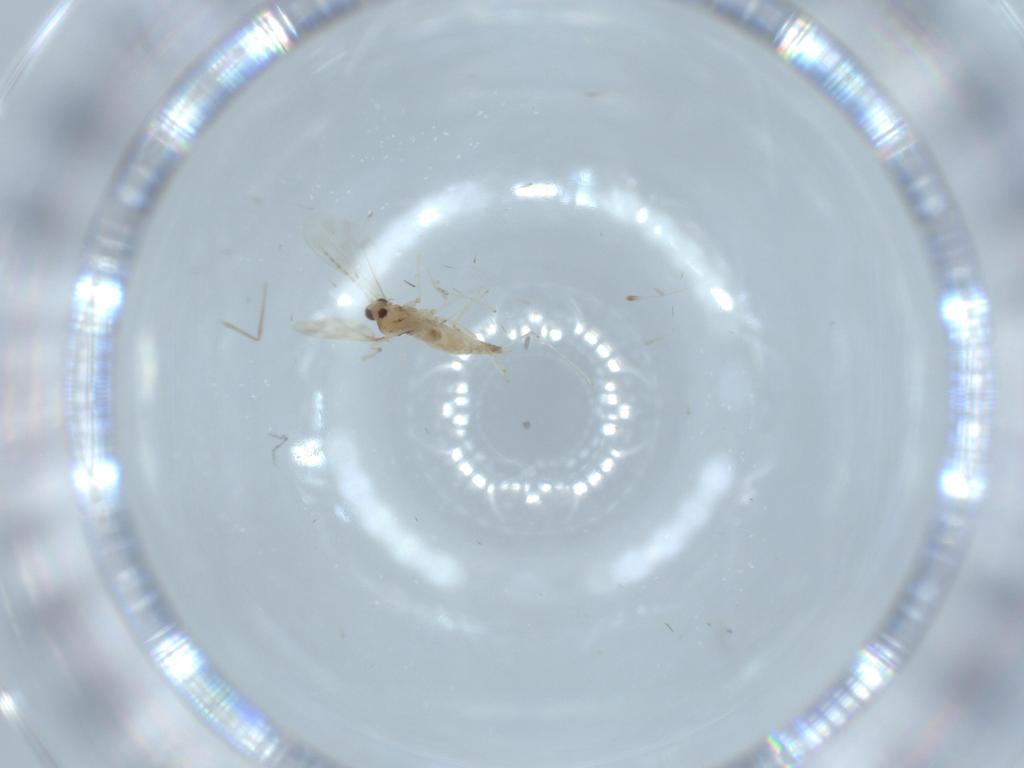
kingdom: Animalia
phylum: Arthropoda
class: Insecta
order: Diptera
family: Cecidomyiidae
